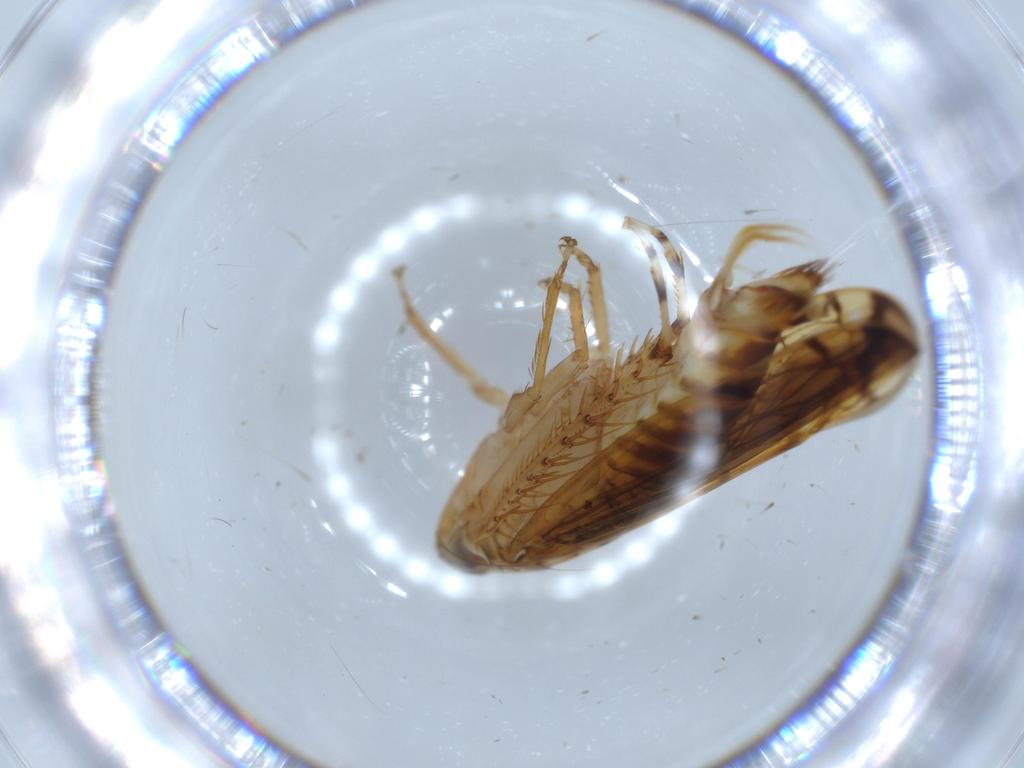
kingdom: Animalia
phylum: Arthropoda
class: Insecta
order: Hemiptera
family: Cicadellidae
